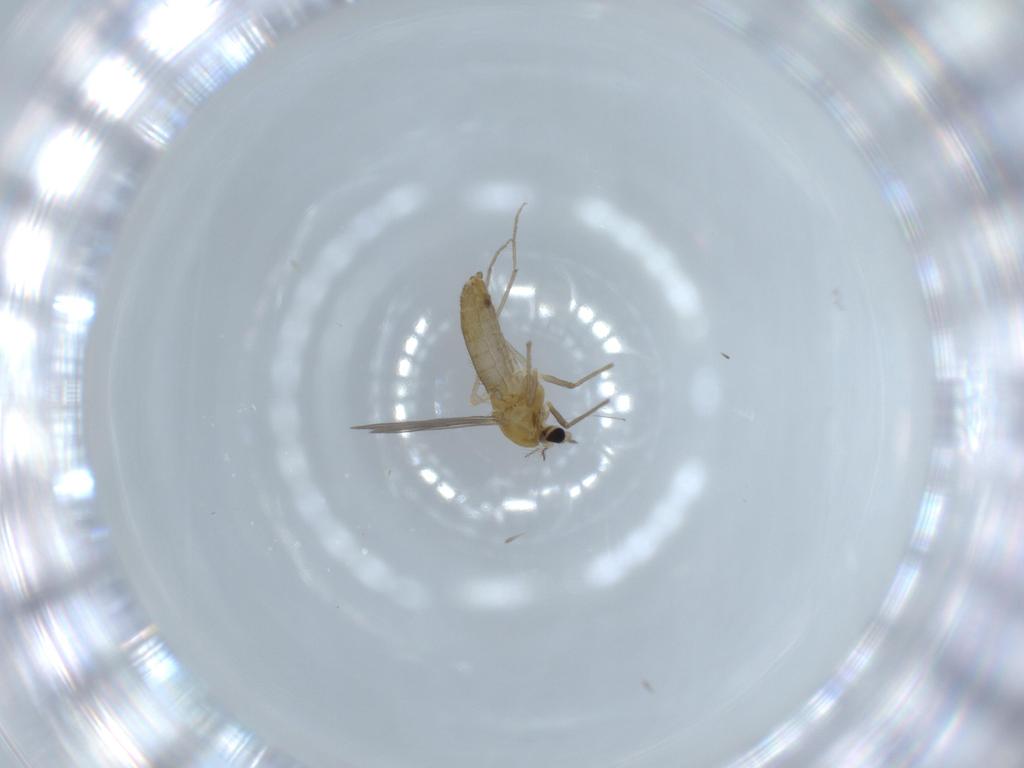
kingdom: Animalia
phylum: Arthropoda
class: Insecta
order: Diptera
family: Chironomidae
